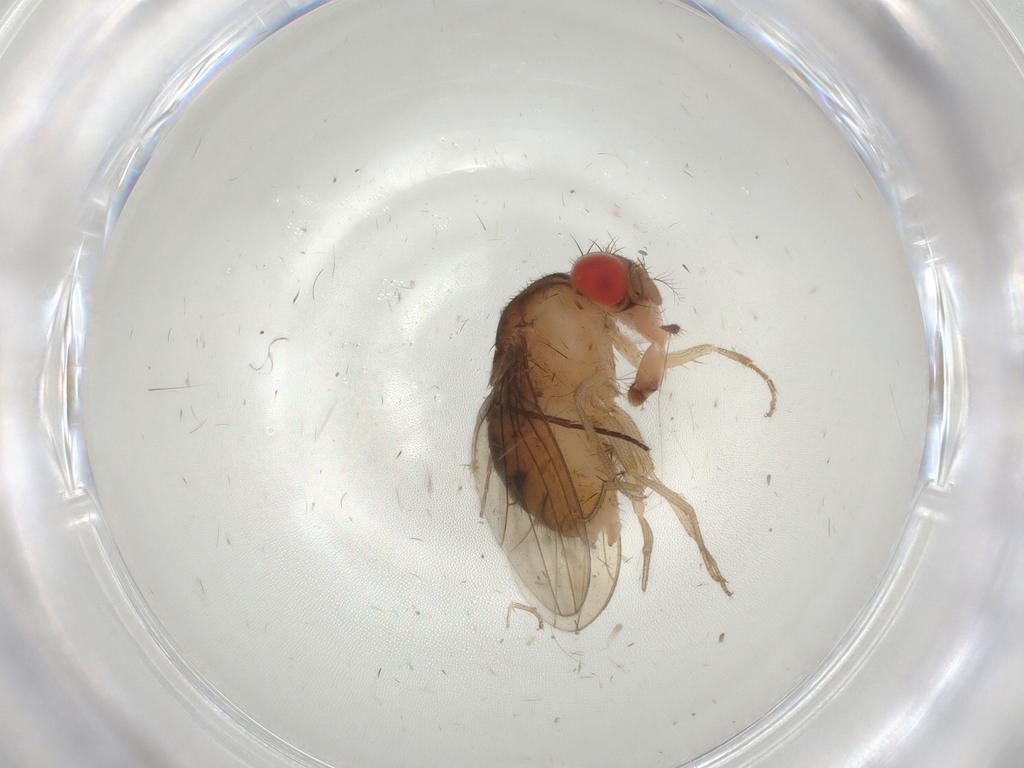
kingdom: Animalia
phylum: Arthropoda
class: Insecta
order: Diptera
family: Drosophilidae
